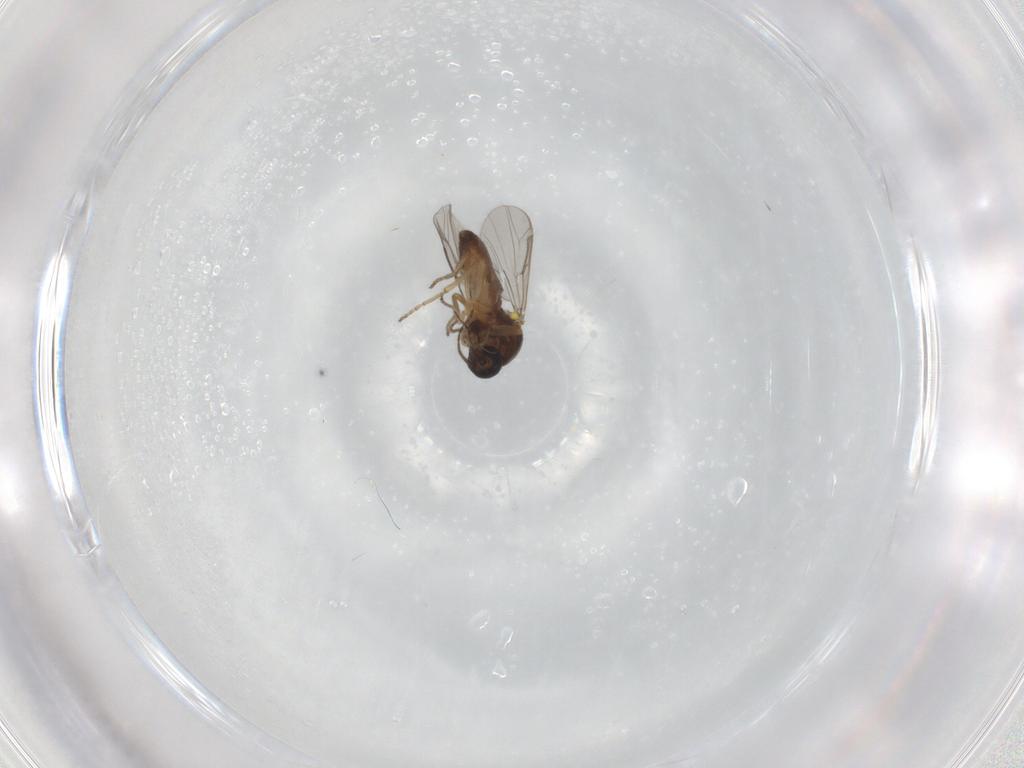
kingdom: Animalia
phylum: Arthropoda
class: Insecta
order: Diptera
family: Ceratopogonidae
